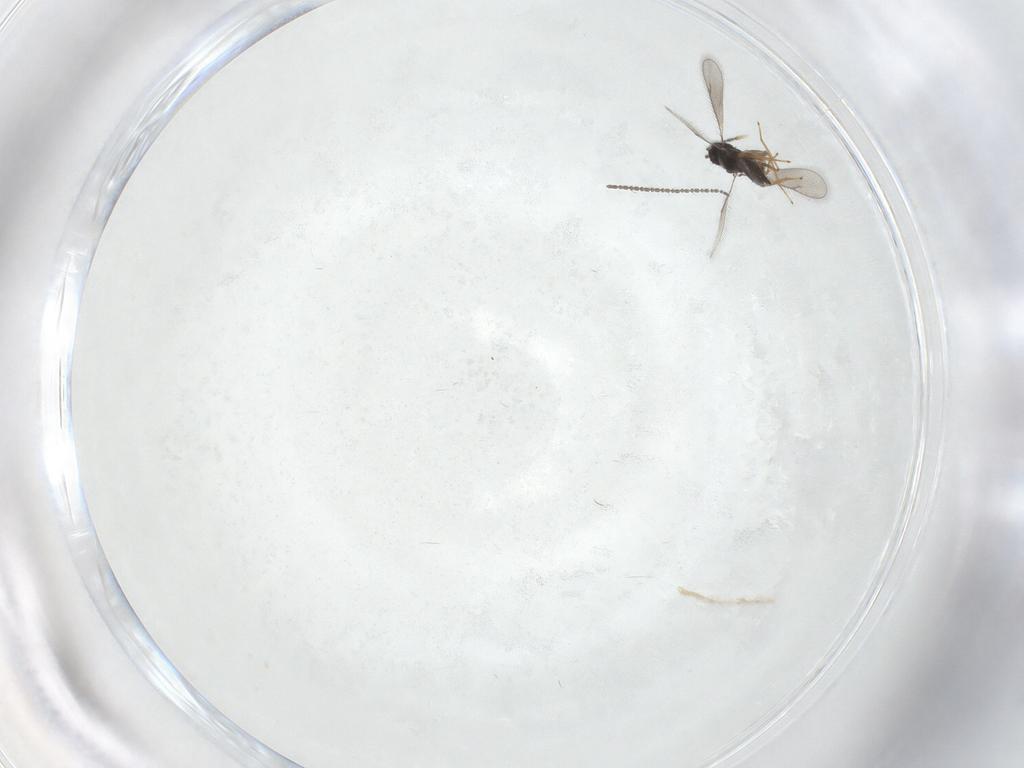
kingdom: Animalia
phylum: Arthropoda
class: Insecta
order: Hymenoptera
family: Eulophidae
